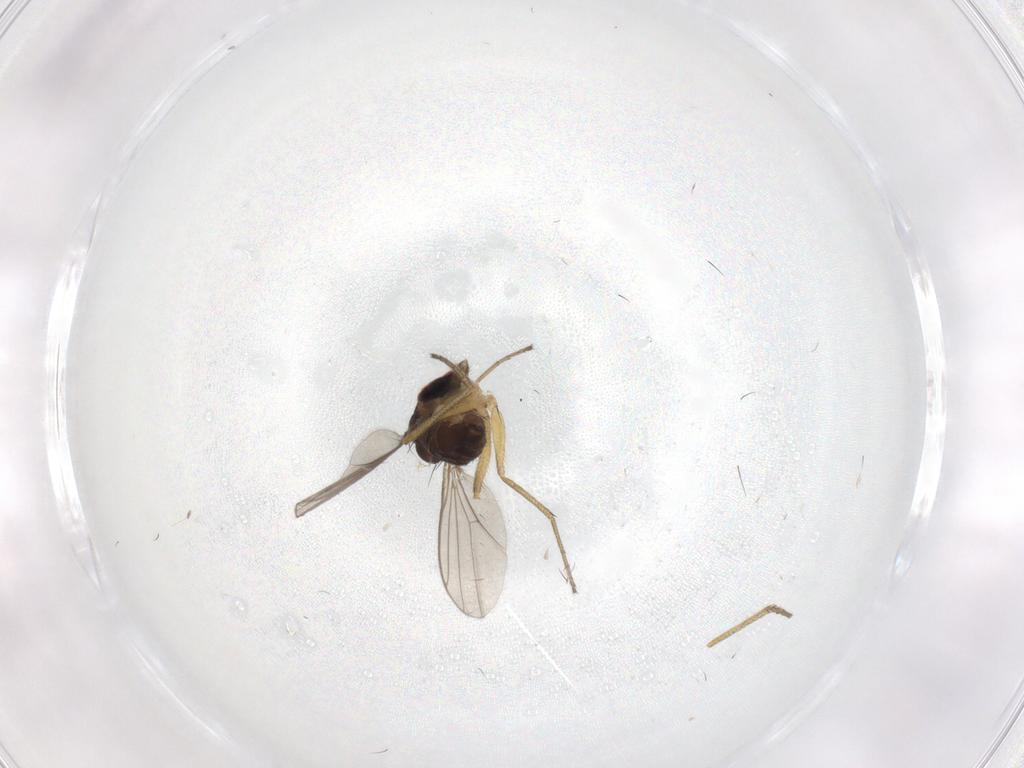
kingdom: Animalia
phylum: Arthropoda
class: Insecta
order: Diptera
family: Dolichopodidae
